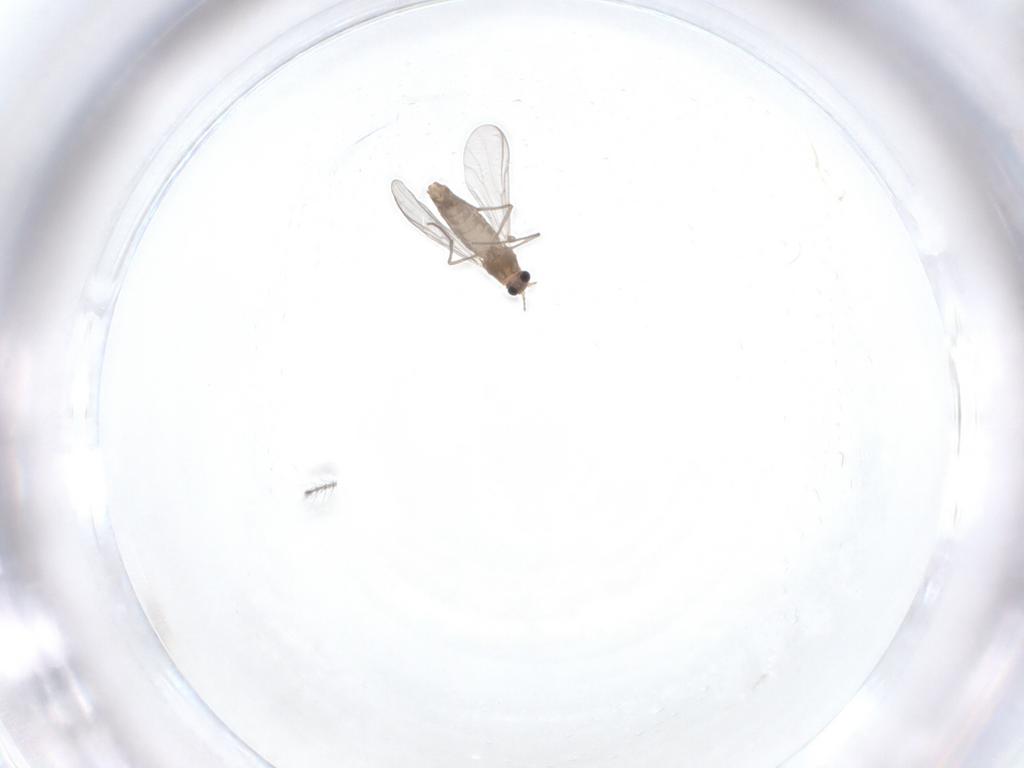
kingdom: Animalia
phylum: Arthropoda
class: Insecta
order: Diptera
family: Chironomidae
